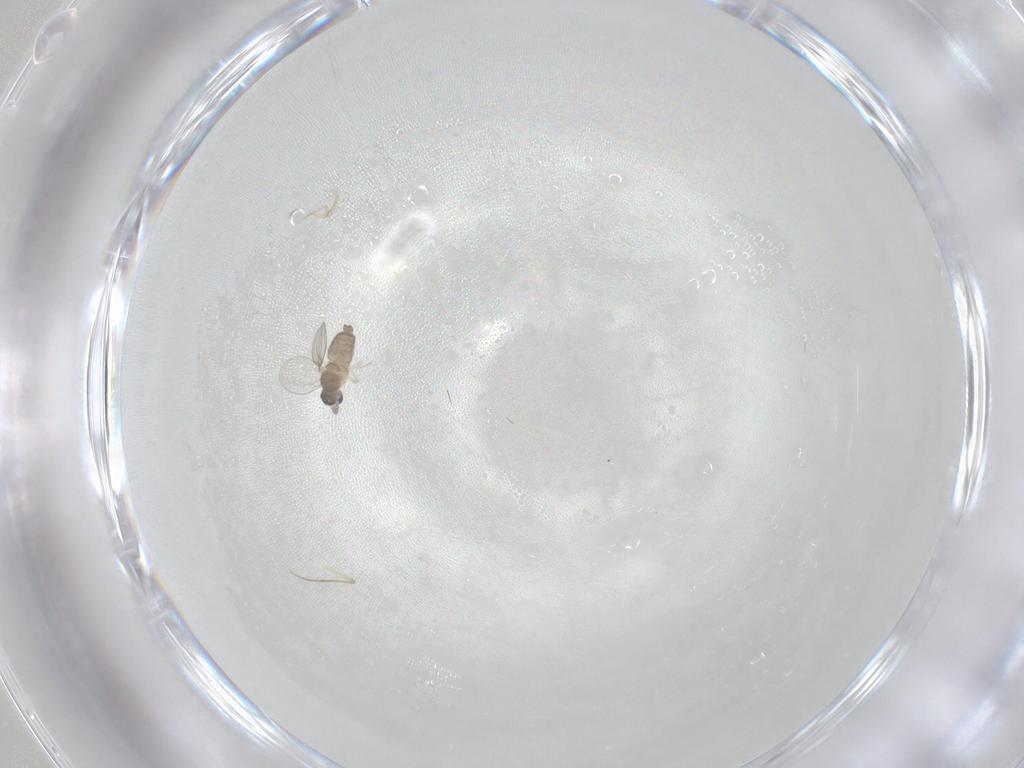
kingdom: Animalia
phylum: Arthropoda
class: Insecta
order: Diptera
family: Sciaridae
